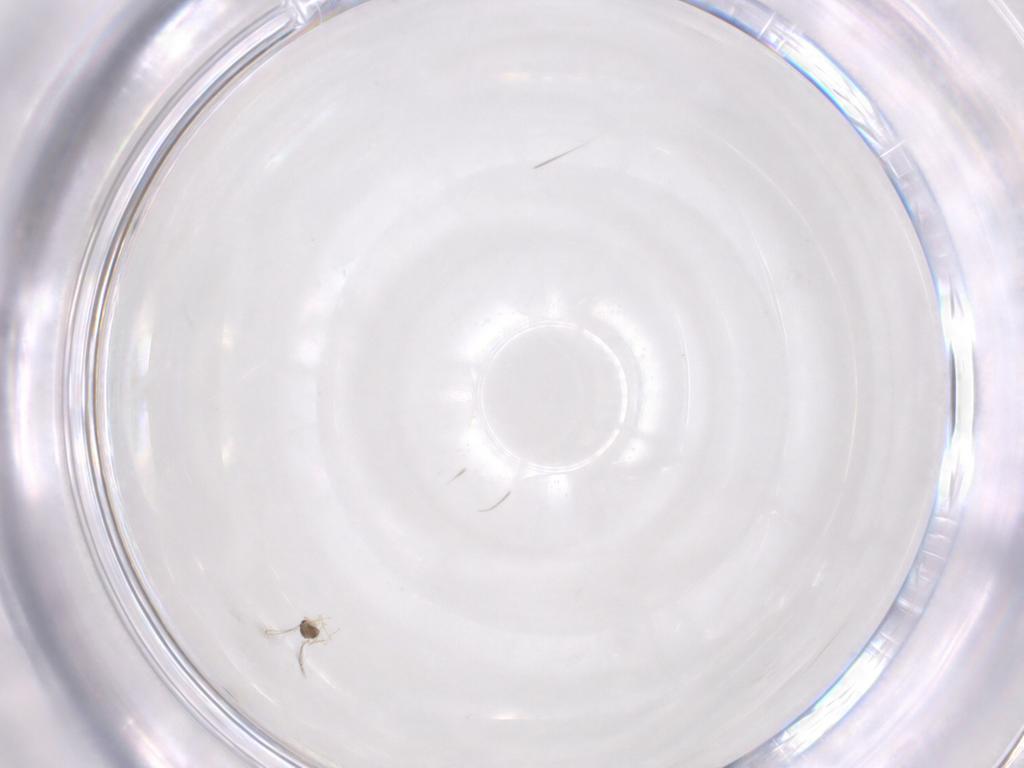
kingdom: Animalia
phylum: Arthropoda
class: Insecta
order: Hymenoptera
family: Mymaridae
